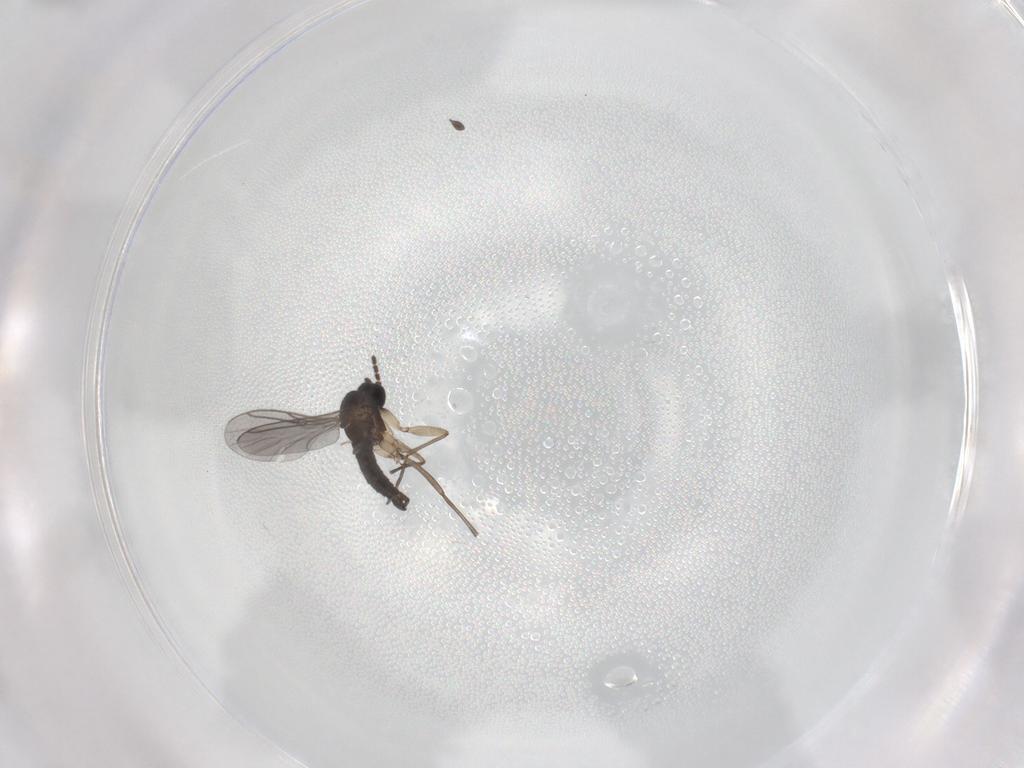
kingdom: Animalia
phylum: Arthropoda
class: Insecta
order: Diptera
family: Sciaridae
